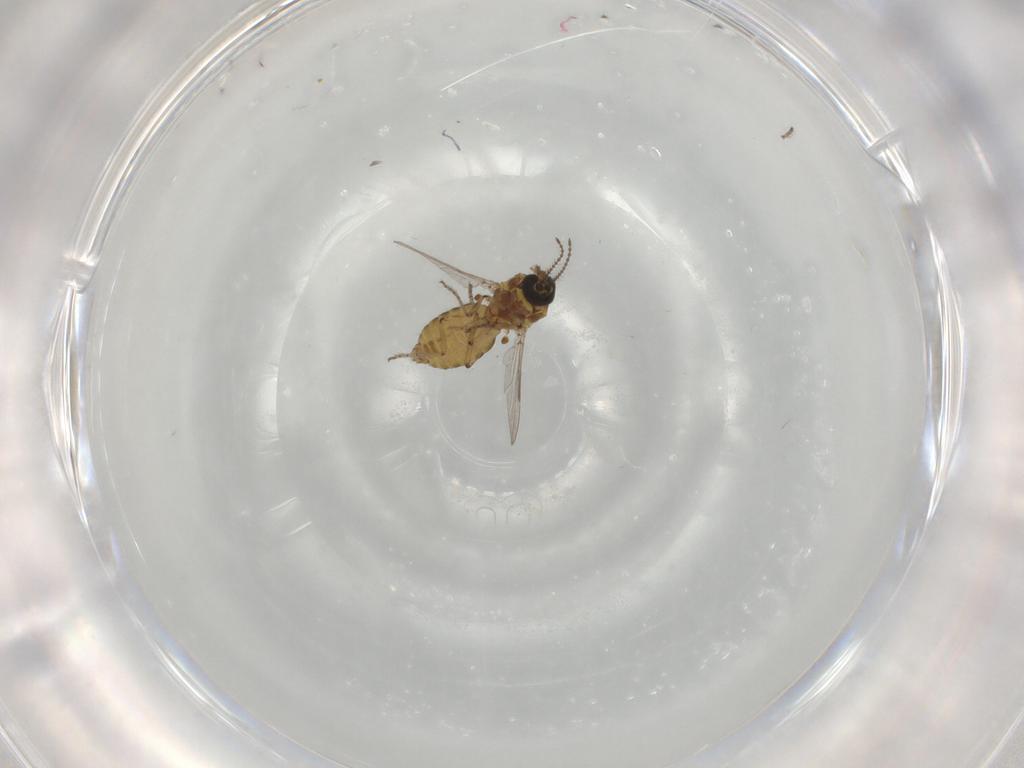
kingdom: Animalia
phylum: Arthropoda
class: Insecta
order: Diptera
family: Ceratopogonidae
